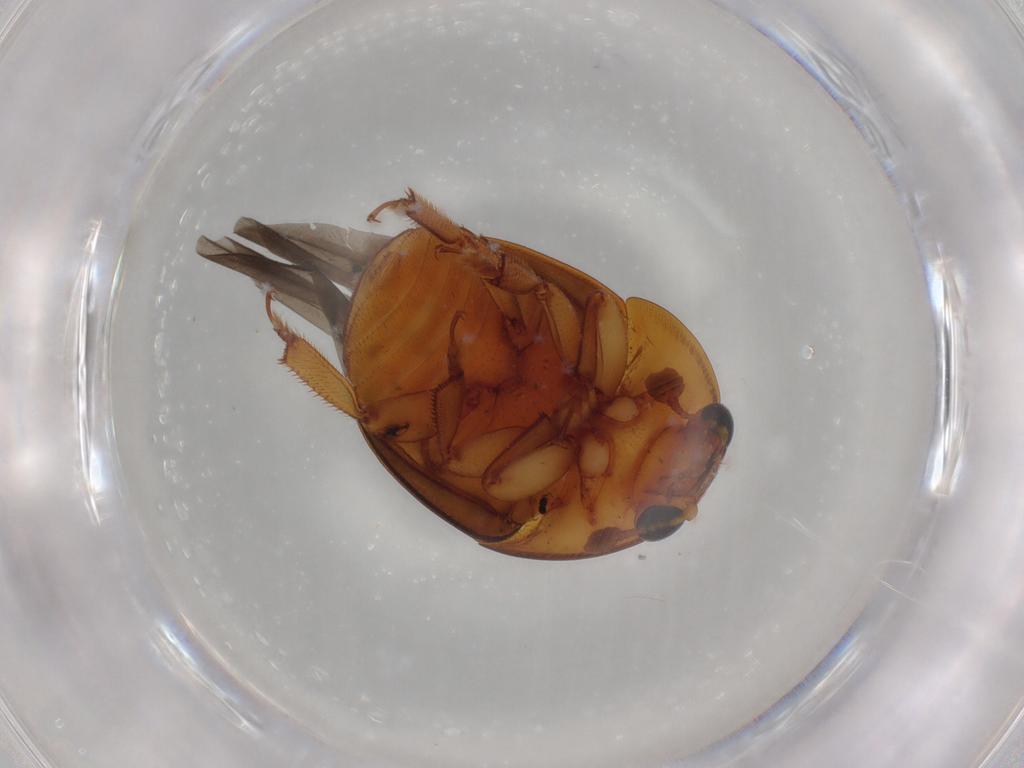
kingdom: Animalia
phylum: Arthropoda
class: Insecta
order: Coleoptera
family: Nitidulidae
